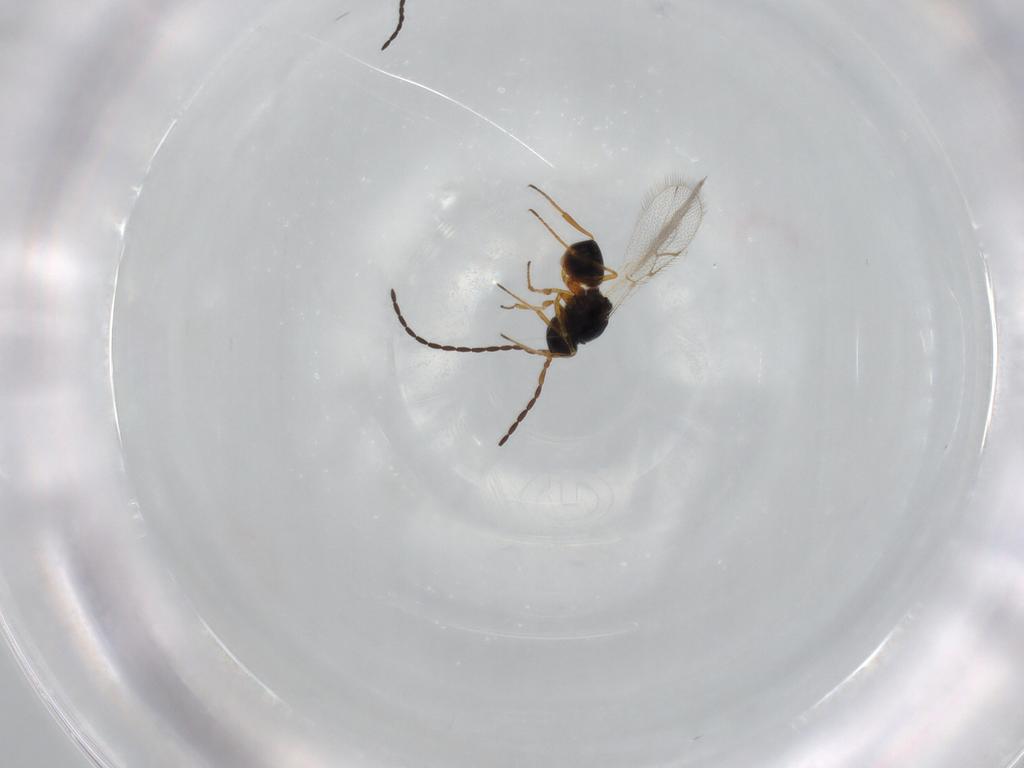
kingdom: Animalia
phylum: Arthropoda
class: Insecta
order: Hymenoptera
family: Figitidae
